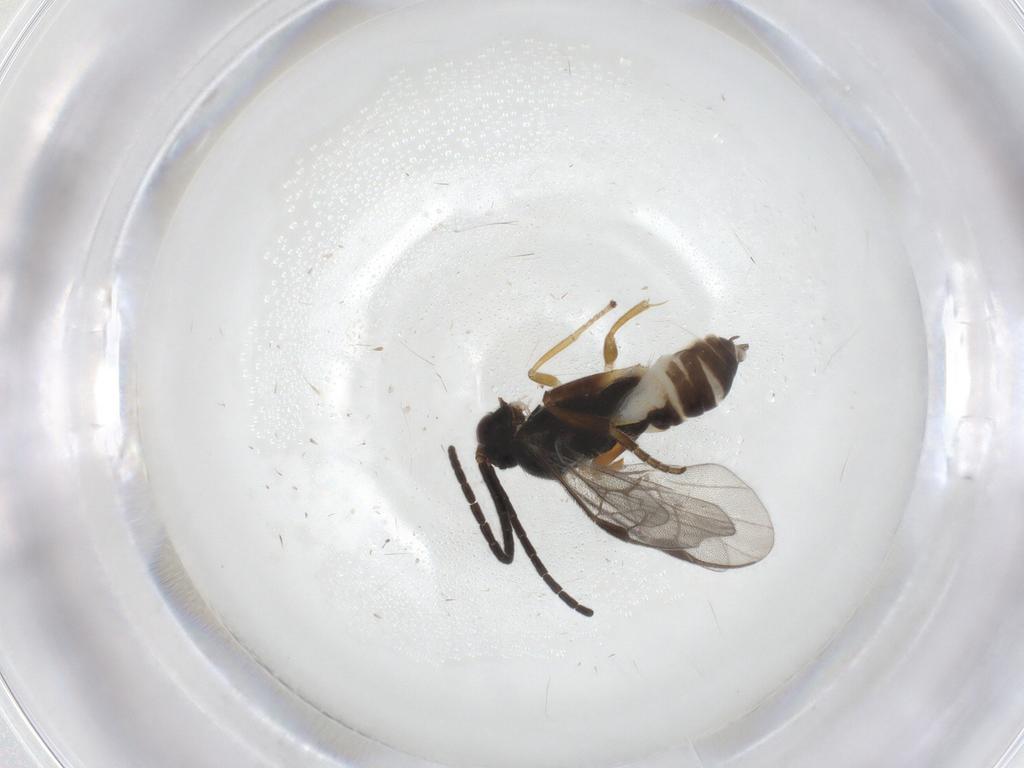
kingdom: Animalia
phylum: Arthropoda
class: Insecta
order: Hymenoptera
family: Braconidae
